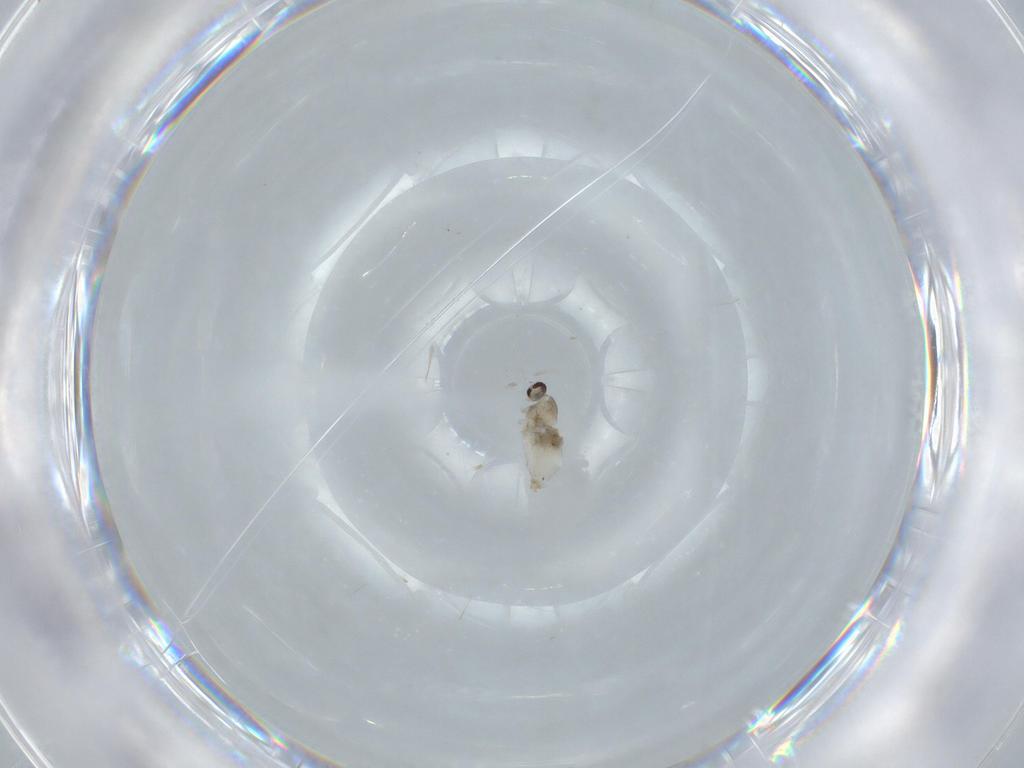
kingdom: Animalia
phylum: Arthropoda
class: Insecta
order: Diptera
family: Cecidomyiidae
